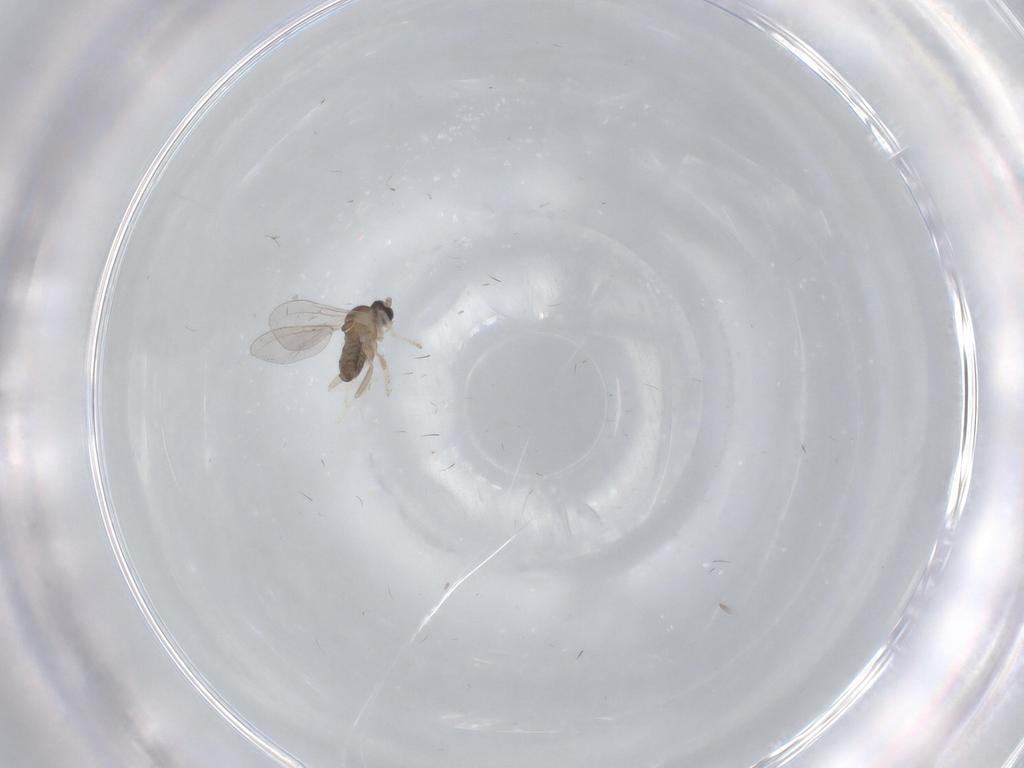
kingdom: Animalia
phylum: Arthropoda
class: Insecta
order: Diptera
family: Cecidomyiidae
